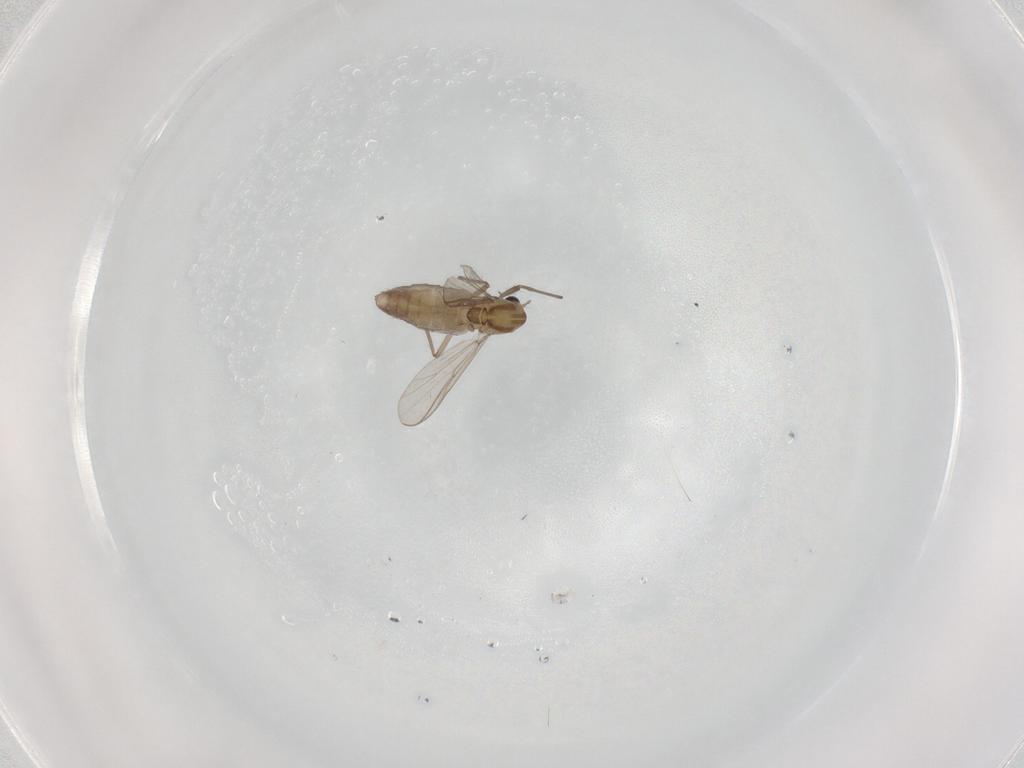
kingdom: Animalia
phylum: Arthropoda
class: Insecta
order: Diptera
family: Chironomidae
